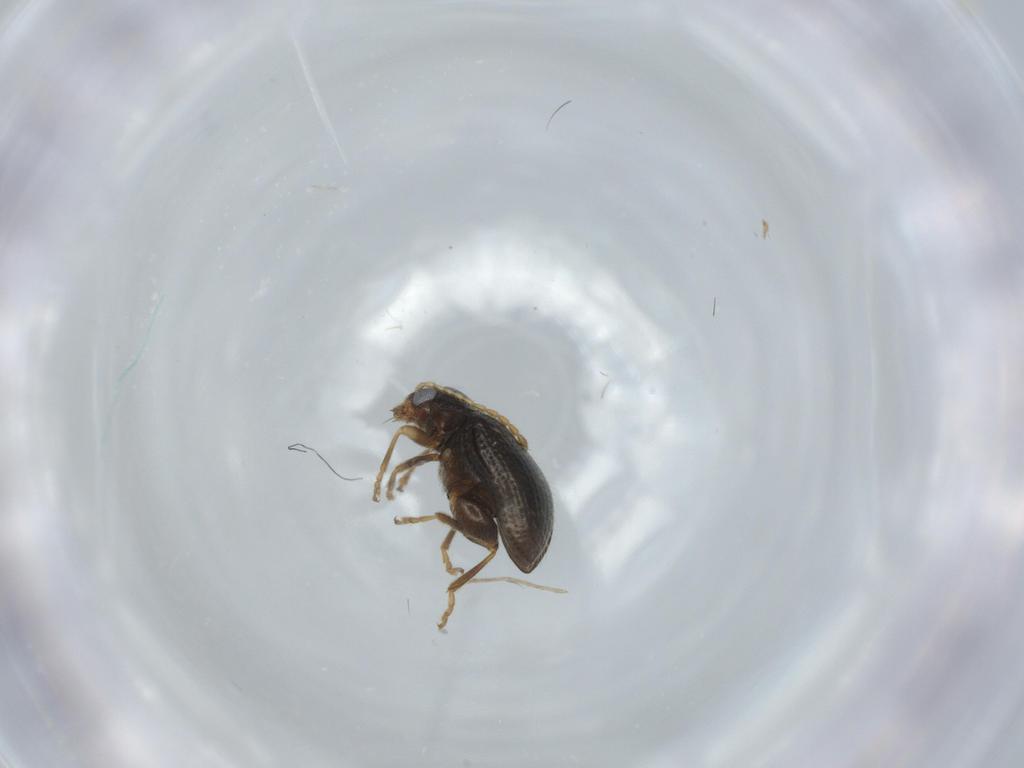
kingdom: Animalia
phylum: Arthropoda
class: Insecta
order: Coleoptera
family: Chrysomelidae
